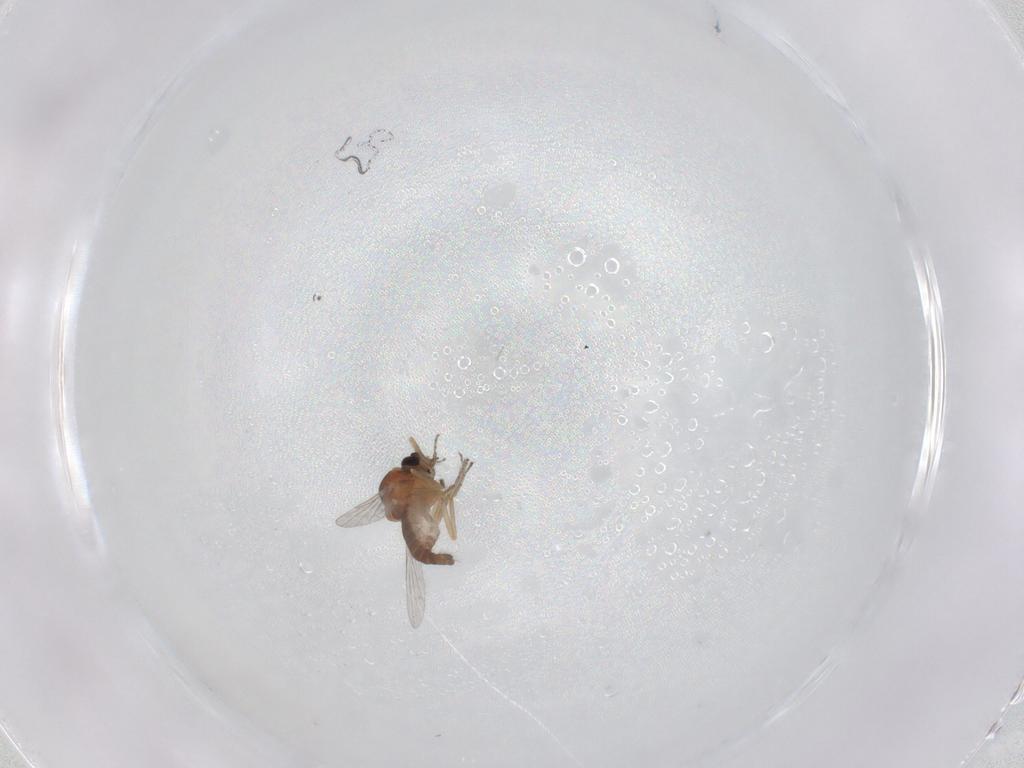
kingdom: Animalia
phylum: Arthropoda
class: Insecta
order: Diptera
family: Ceratopogonidae
